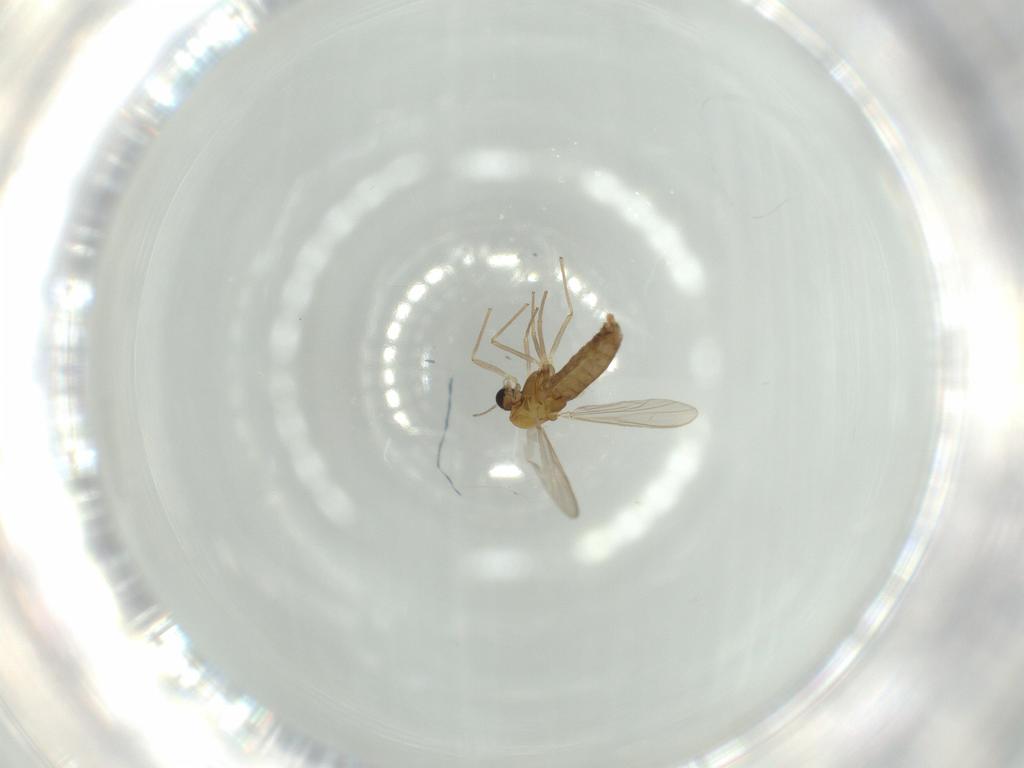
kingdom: Animalia
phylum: Arthropoda
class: Insecta
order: Diptera
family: Chironomidae
